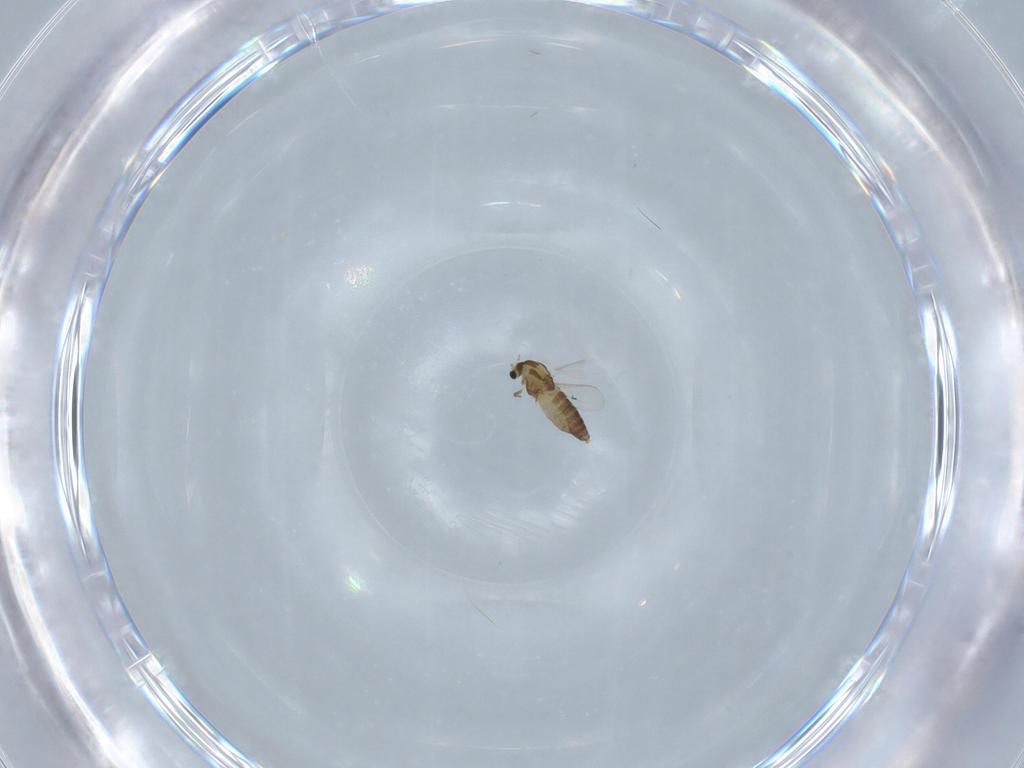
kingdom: Animalia
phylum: Arthropoda
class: Insecta
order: Diptera
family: Chironomidae
